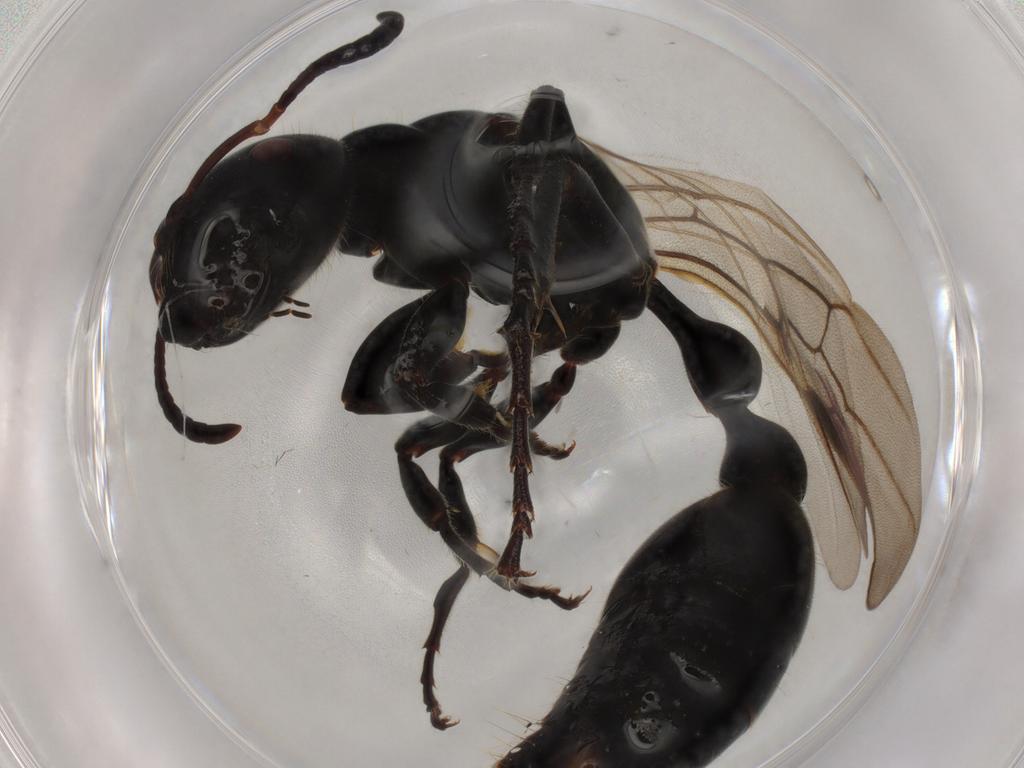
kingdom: Animalia
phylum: Arthropoda
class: Insecta
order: Hymenoptera
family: Formicidae
